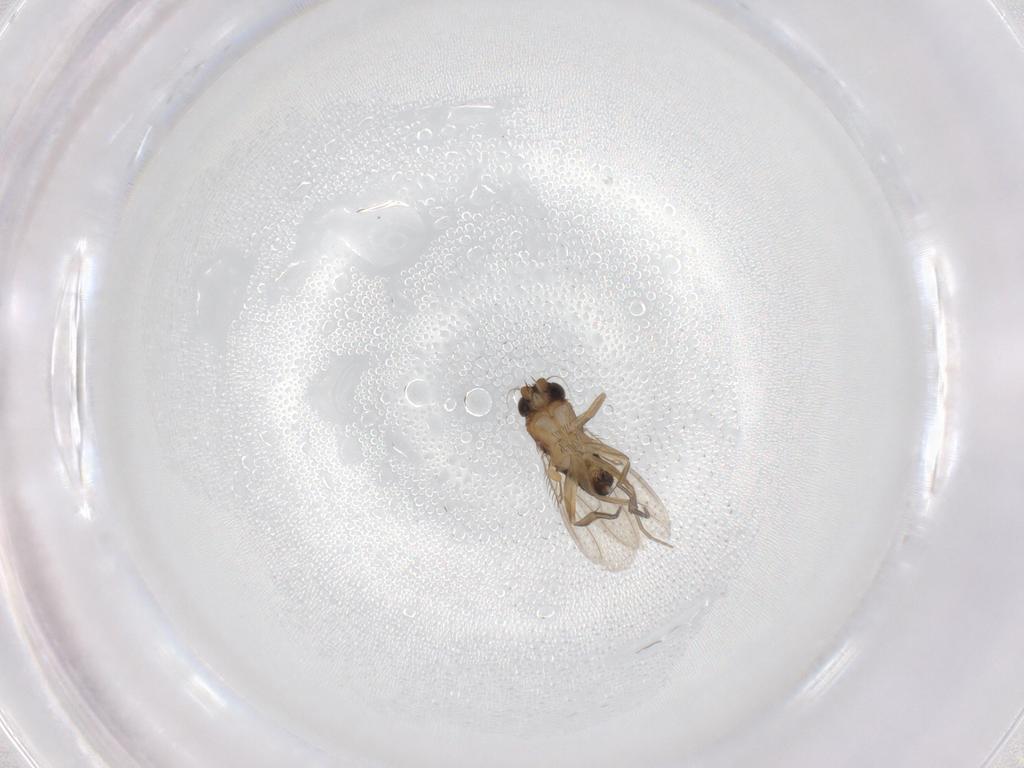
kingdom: Animalia
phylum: Arthropoda
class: Insecta
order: Diptera
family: Phoridae
